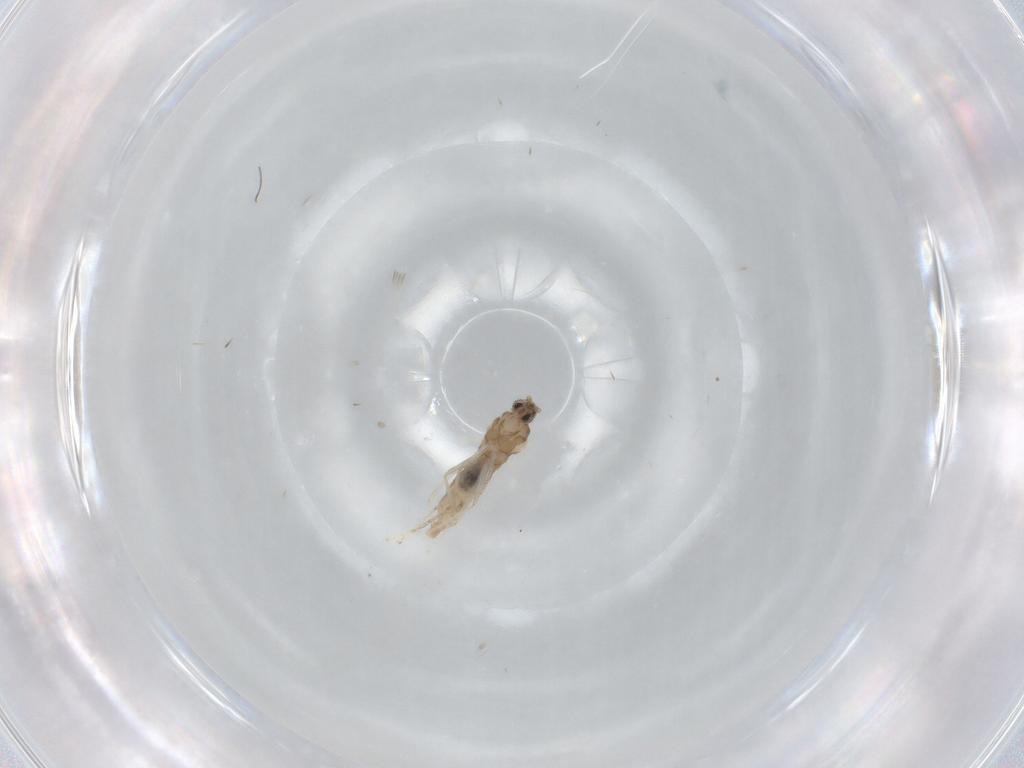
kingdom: Animalia
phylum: Arthropoda
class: Insecta
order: Diptera
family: Cecidomyiidae
